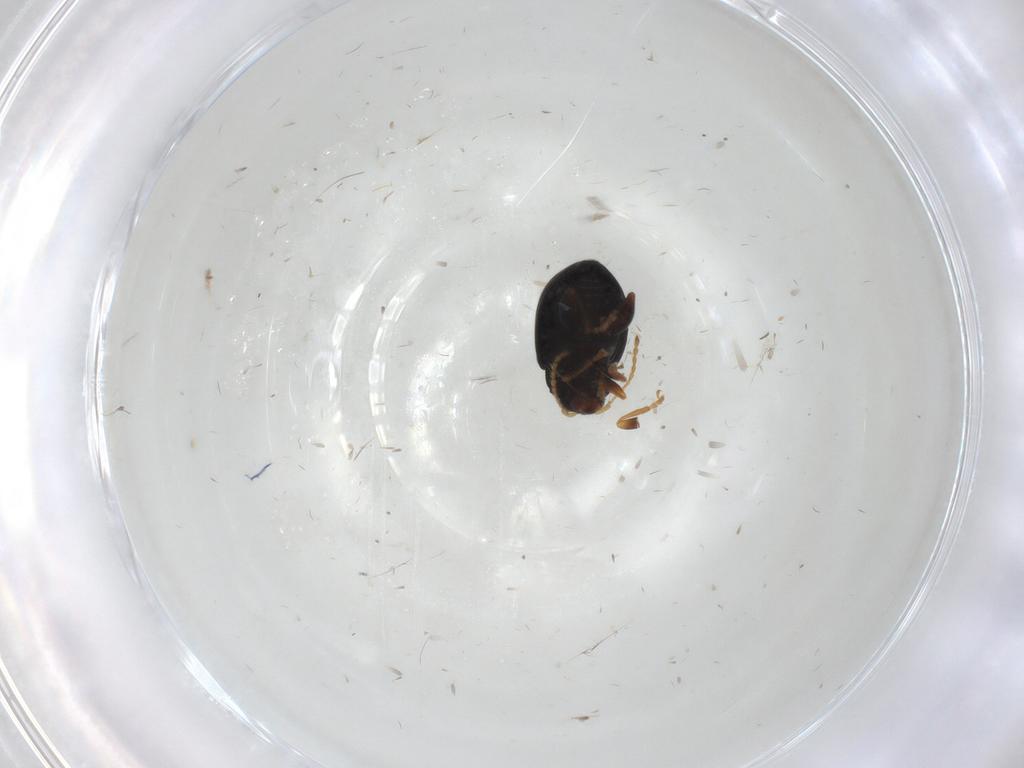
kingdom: Animalia
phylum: Arthropoda
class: Insecta
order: Coleoptera
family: Chrysomelidae
